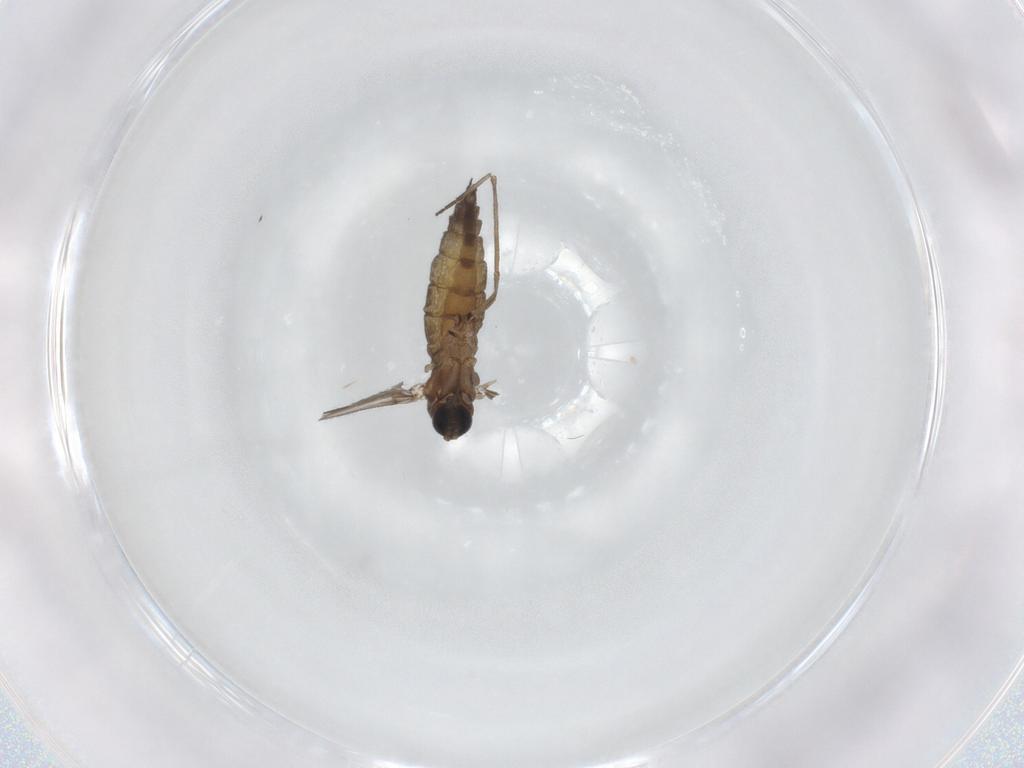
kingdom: Animalia
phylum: Arthropoda
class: Insecta
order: Diptera
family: Sciaridae
